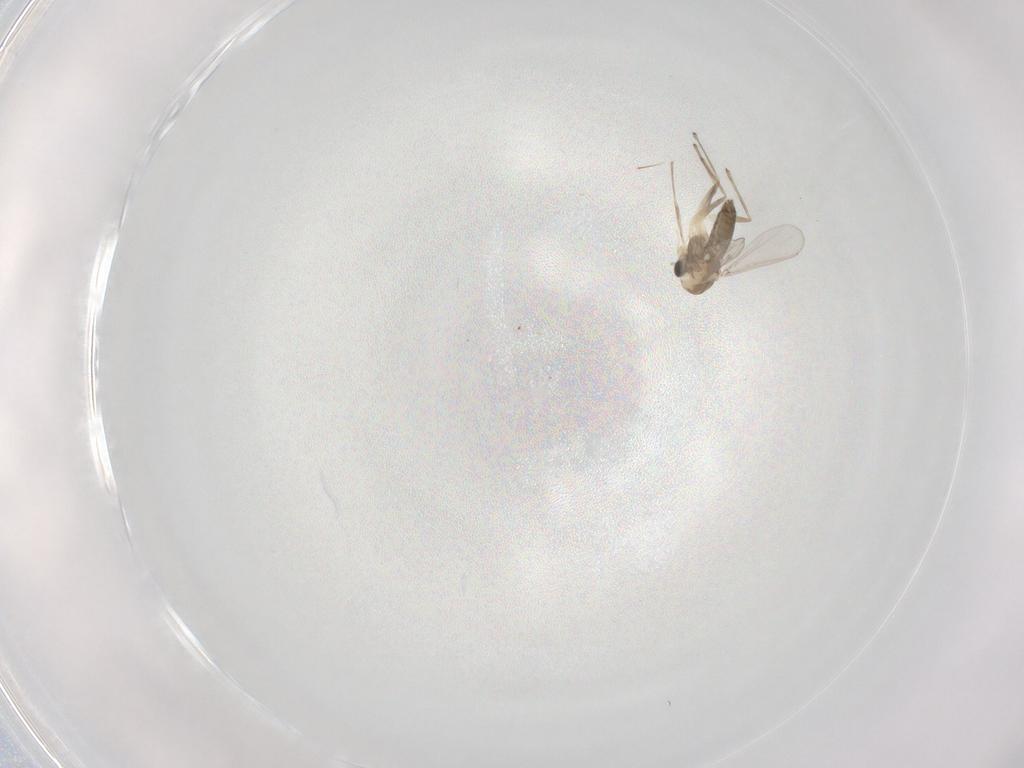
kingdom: Animalia
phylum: Arthropoda
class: Insecta
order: Diptera
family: Chironomidae
